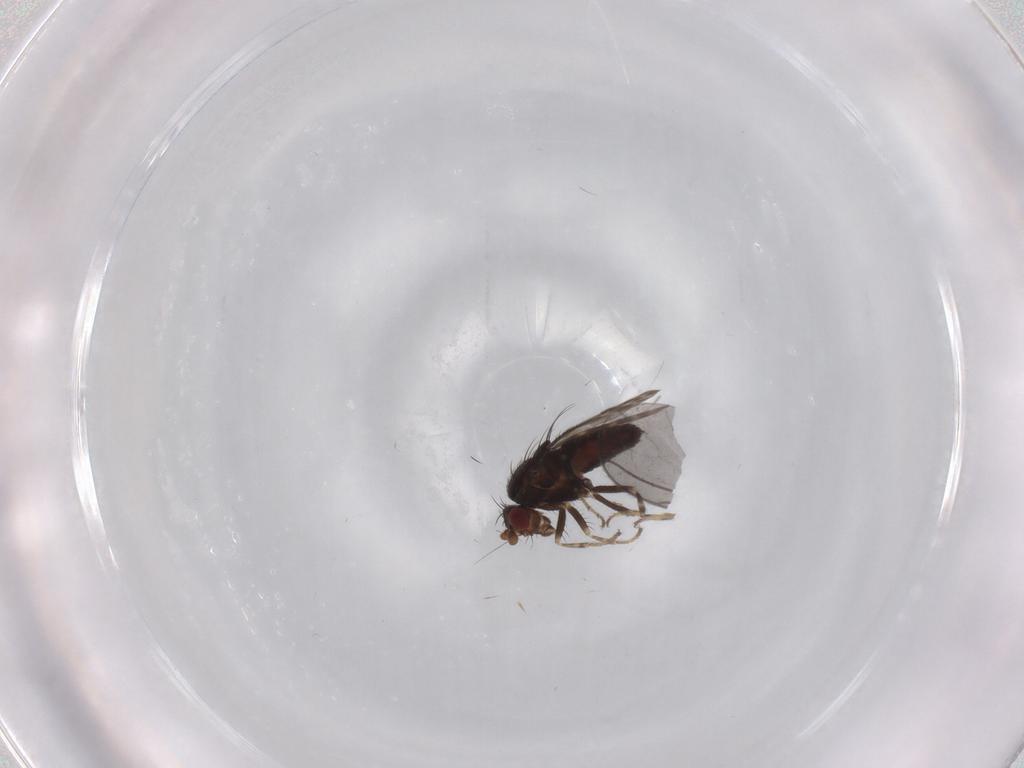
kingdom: Animalia
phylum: Arthropoda
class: Insecta
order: Diptera
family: Sphaeroceridae
